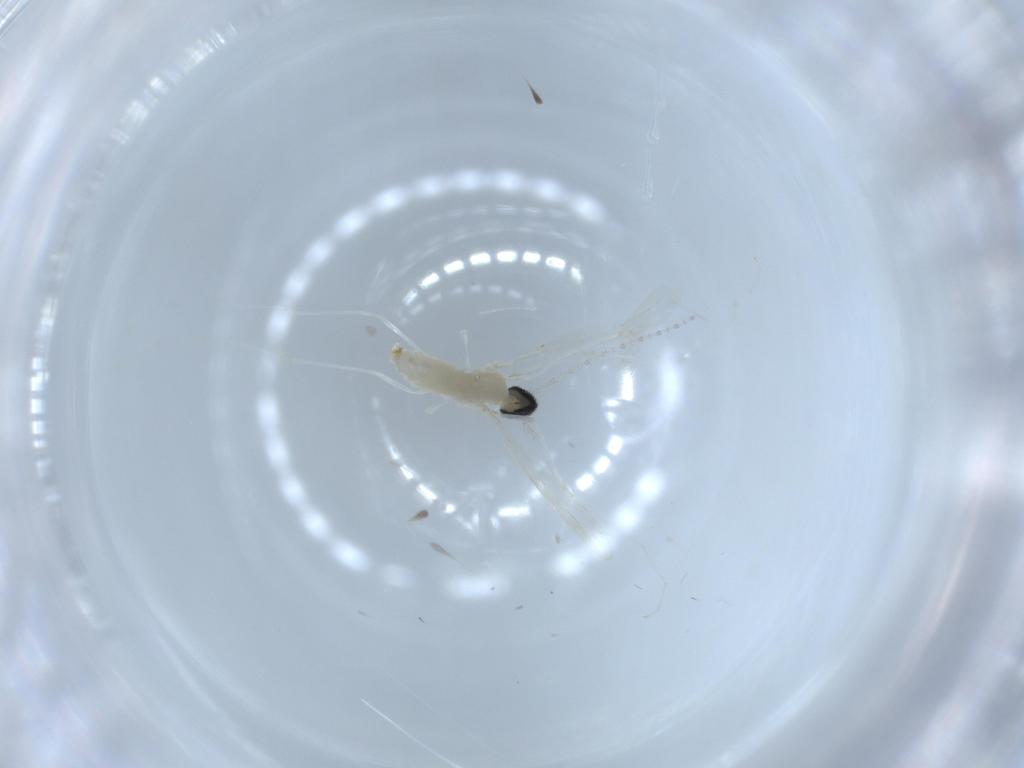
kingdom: Animalia
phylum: Arthropoda
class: Insecta
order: Diptera
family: Cecidomyiidae
